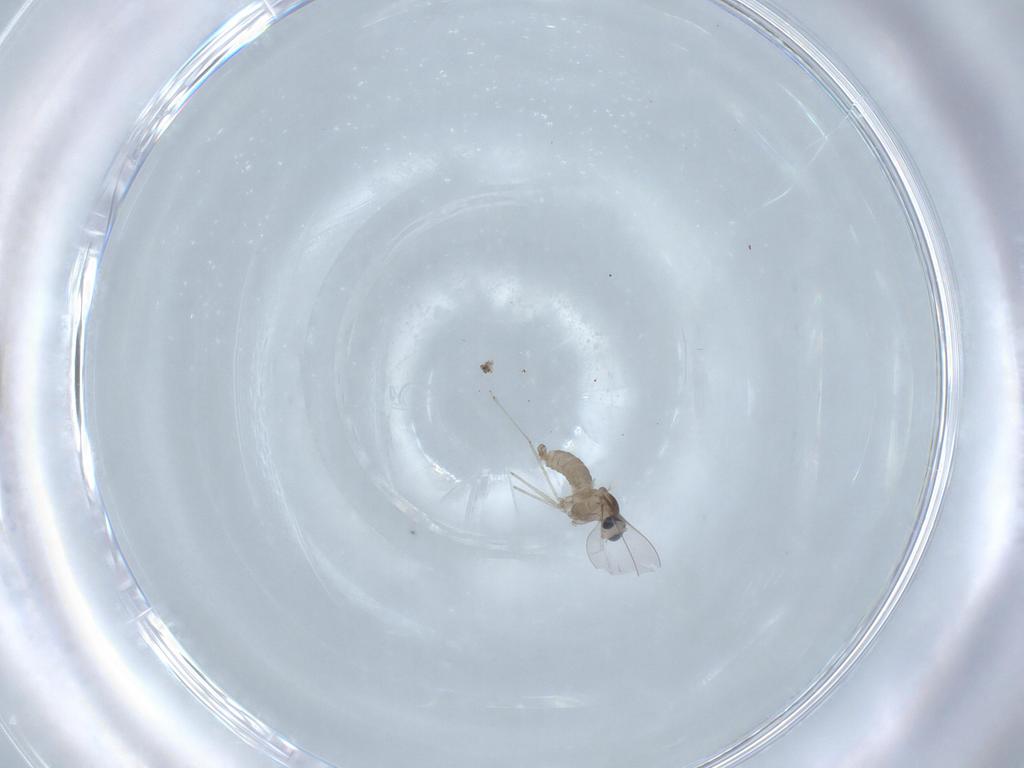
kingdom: Animalia
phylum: Arthropoda
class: Insecta
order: Diptera
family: Cecidomyiidae
